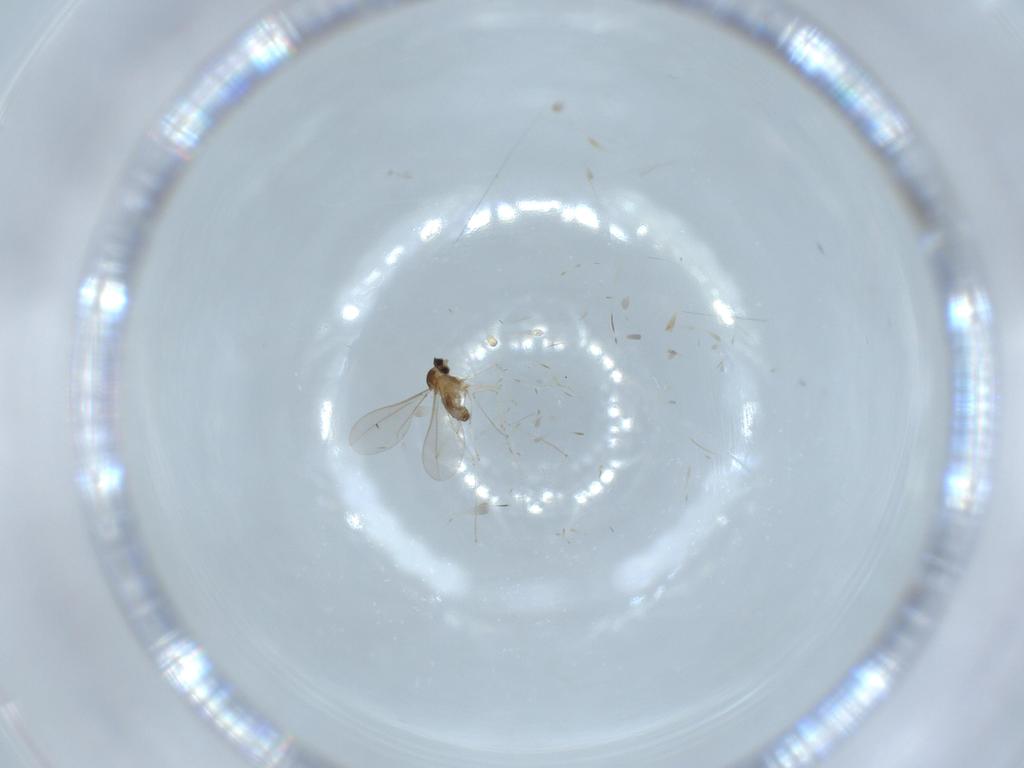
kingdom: Animalia
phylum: Arthropoda
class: Insecta
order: Diptera
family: Cecidomyiidae
